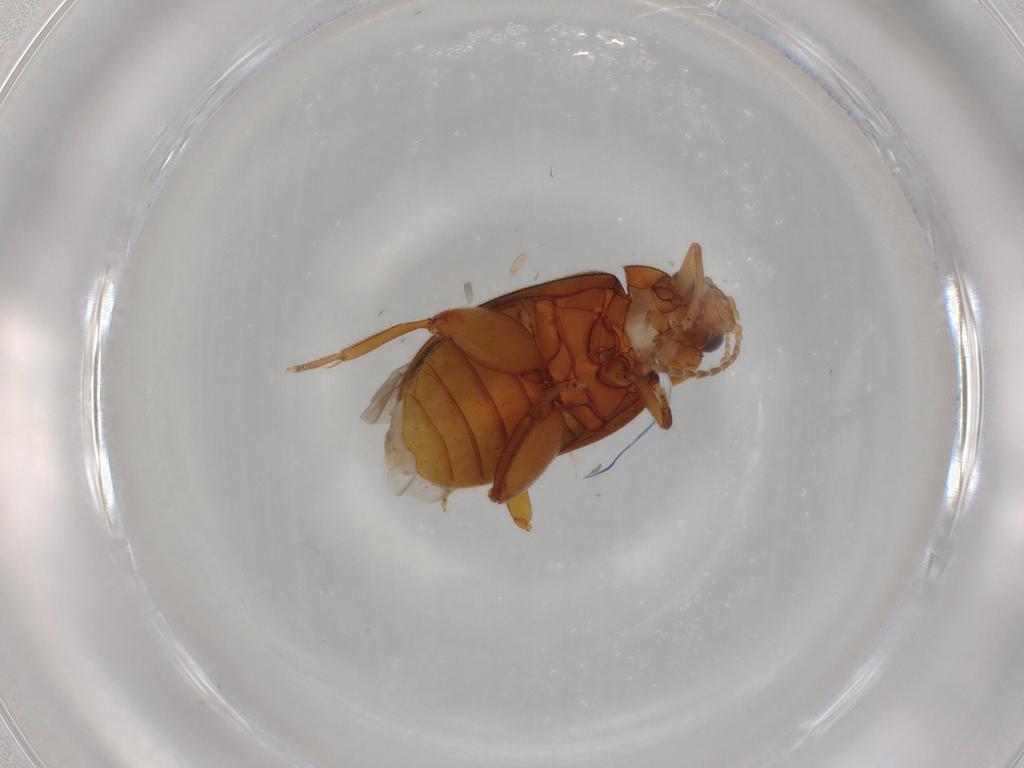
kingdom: Animalia
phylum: Arthropoda
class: Insecta
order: Coleoptera
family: Scirtidae
